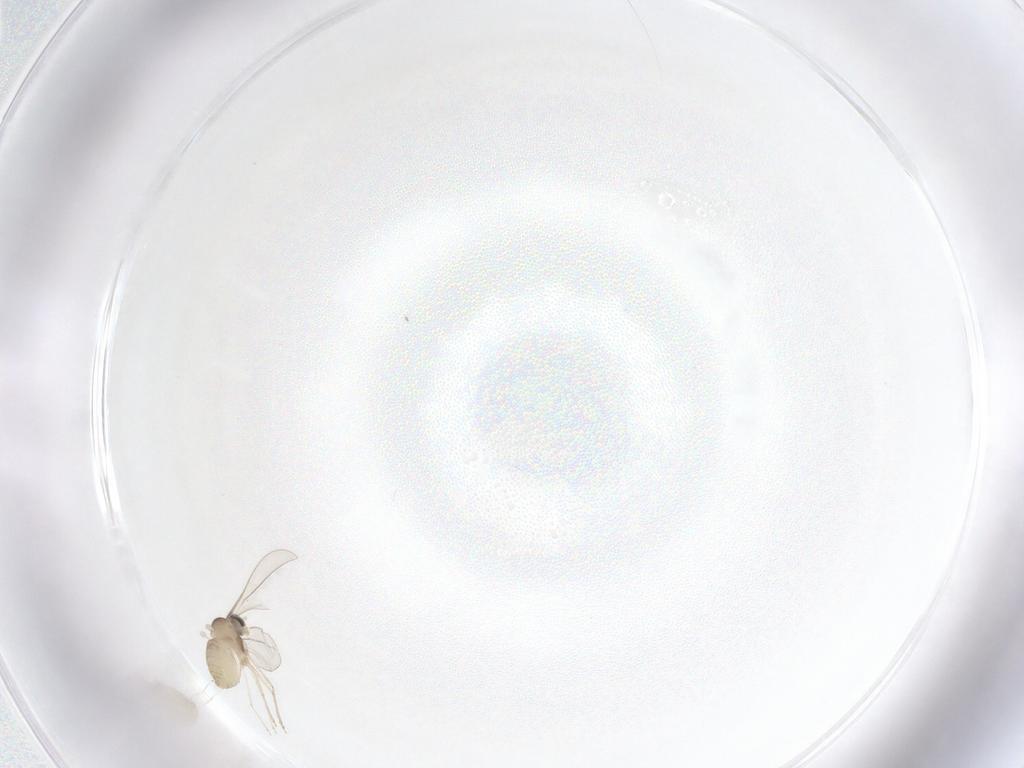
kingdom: Animalia
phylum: Arthropoda
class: Insecta
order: Diptera
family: Cecidomyiidae
